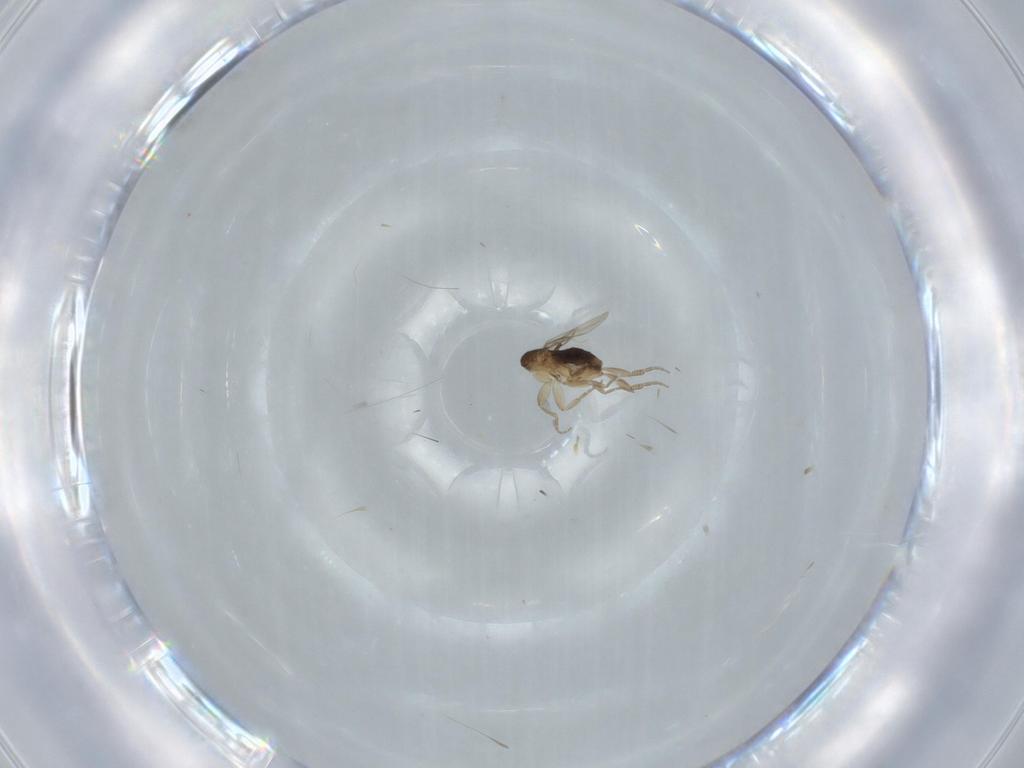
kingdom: Animalia
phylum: Arthropoda
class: Insecta
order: Diptera
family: Phoridae
